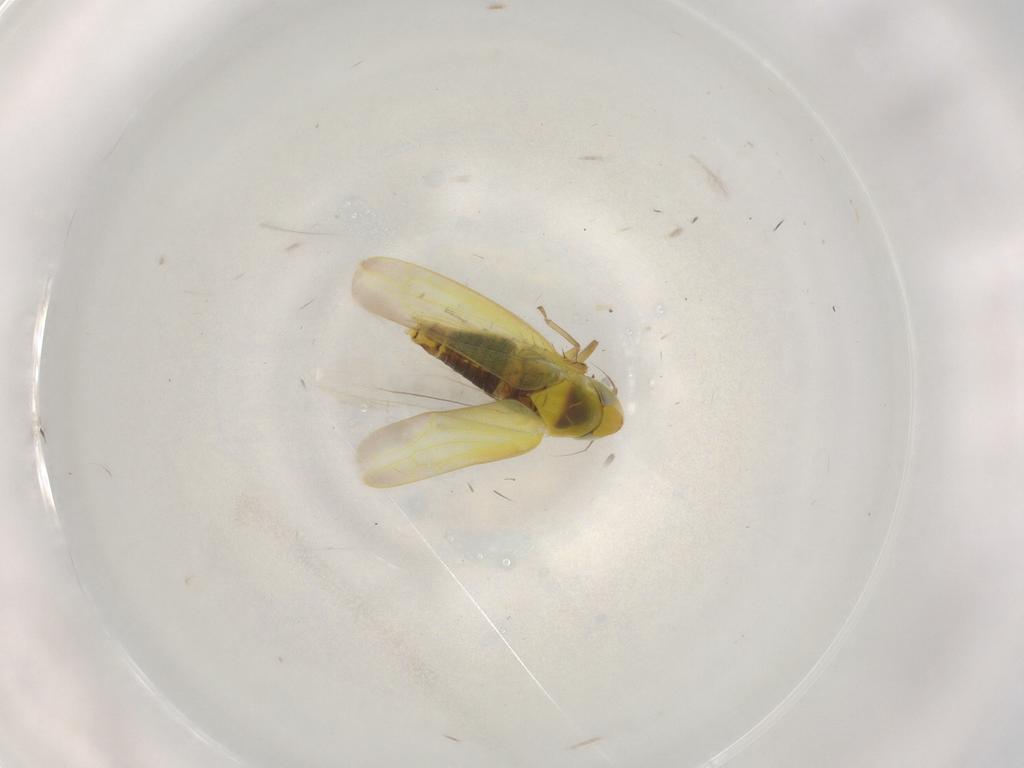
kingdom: Animalia
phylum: Arthropoda
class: Insecta
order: Hemiptera
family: Cicadellidae
